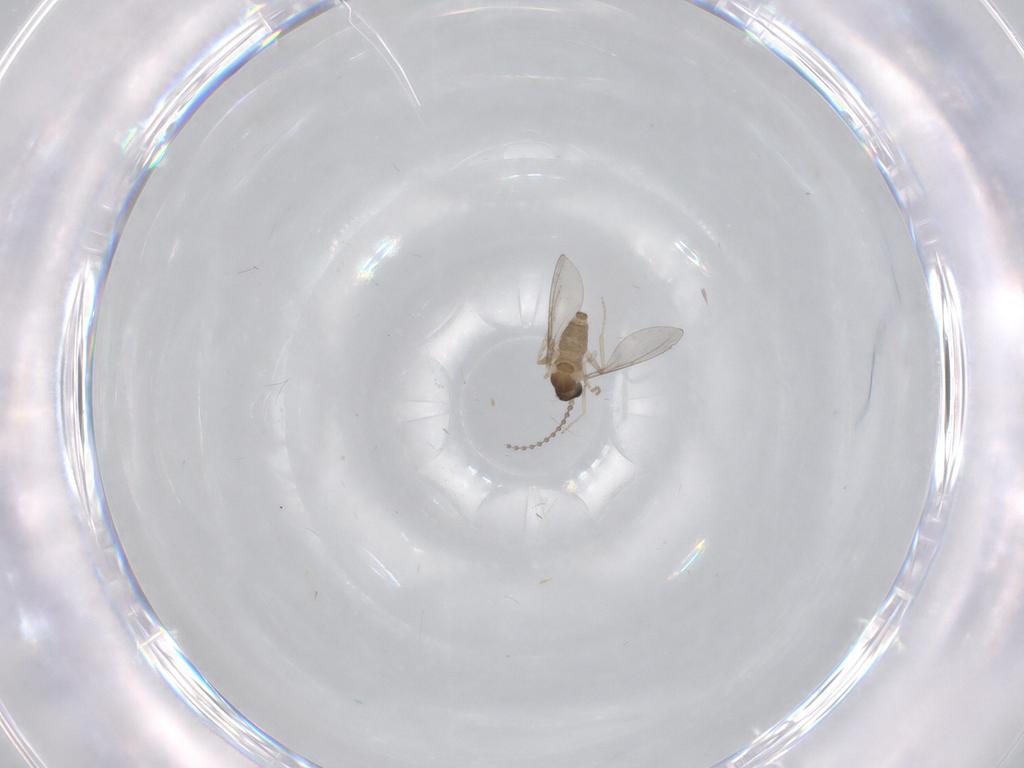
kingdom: Animalia
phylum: Arthropoda
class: Insecta
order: Diptera
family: Cecidomyiidae
